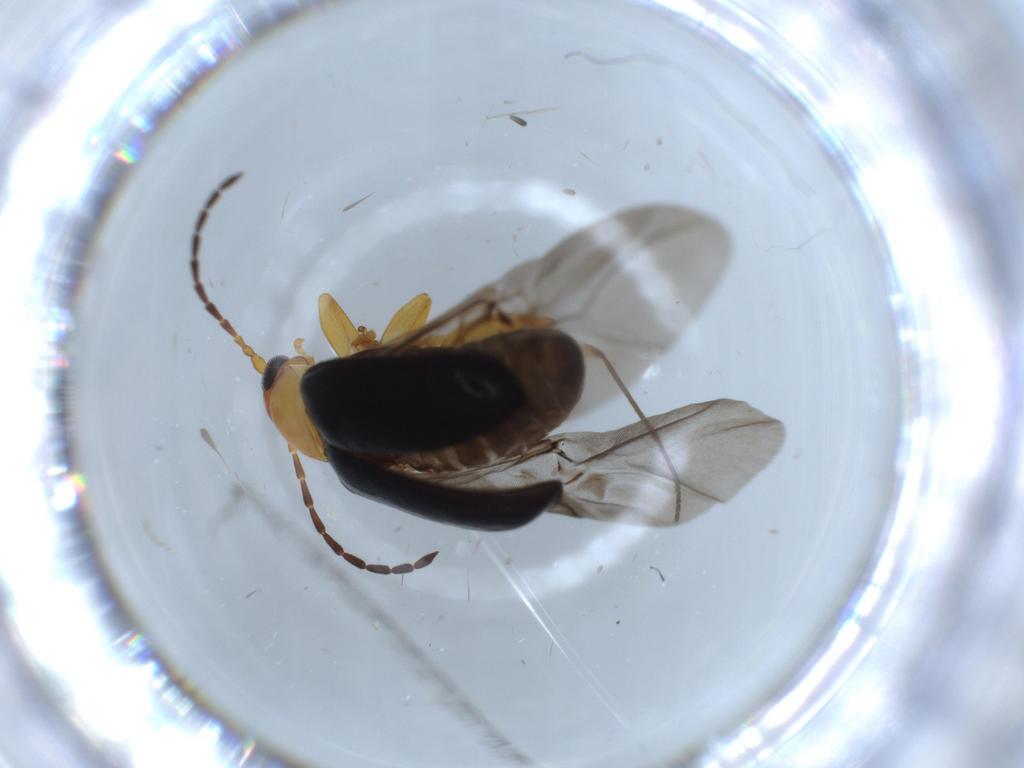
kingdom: Animalia
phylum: Arthropoda
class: Insecta
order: Coleoptera
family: Chrysomelidae
